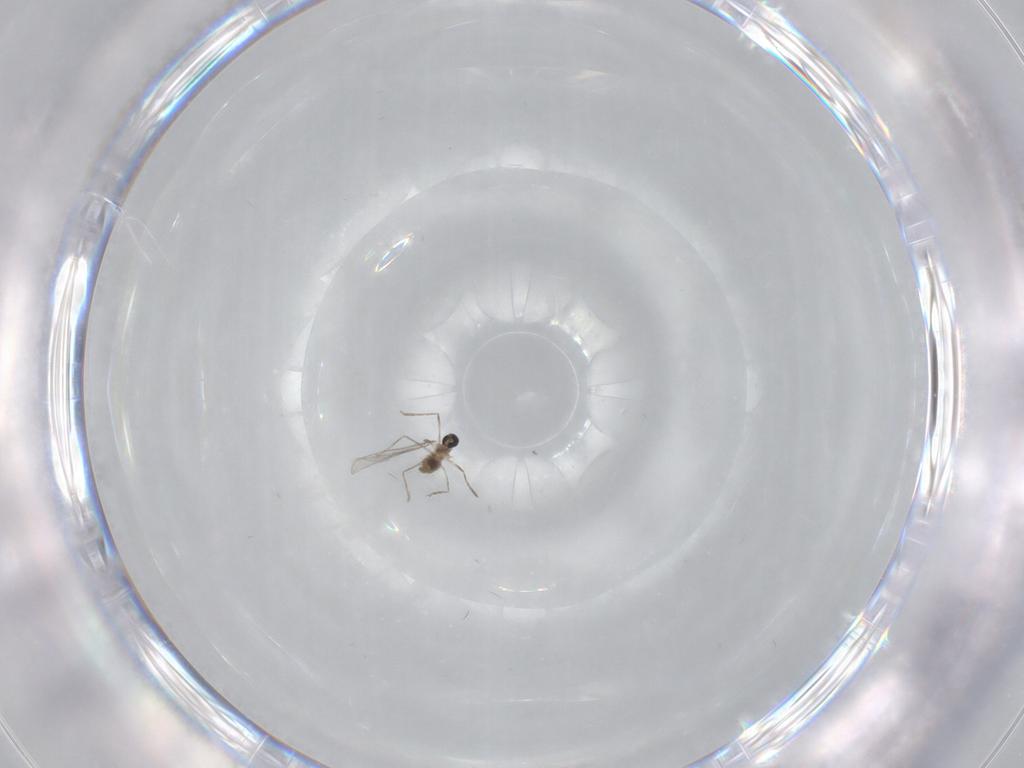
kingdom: Animalia
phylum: Arthropoda
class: Insecta
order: Diptera
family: Cecidomyiidae
